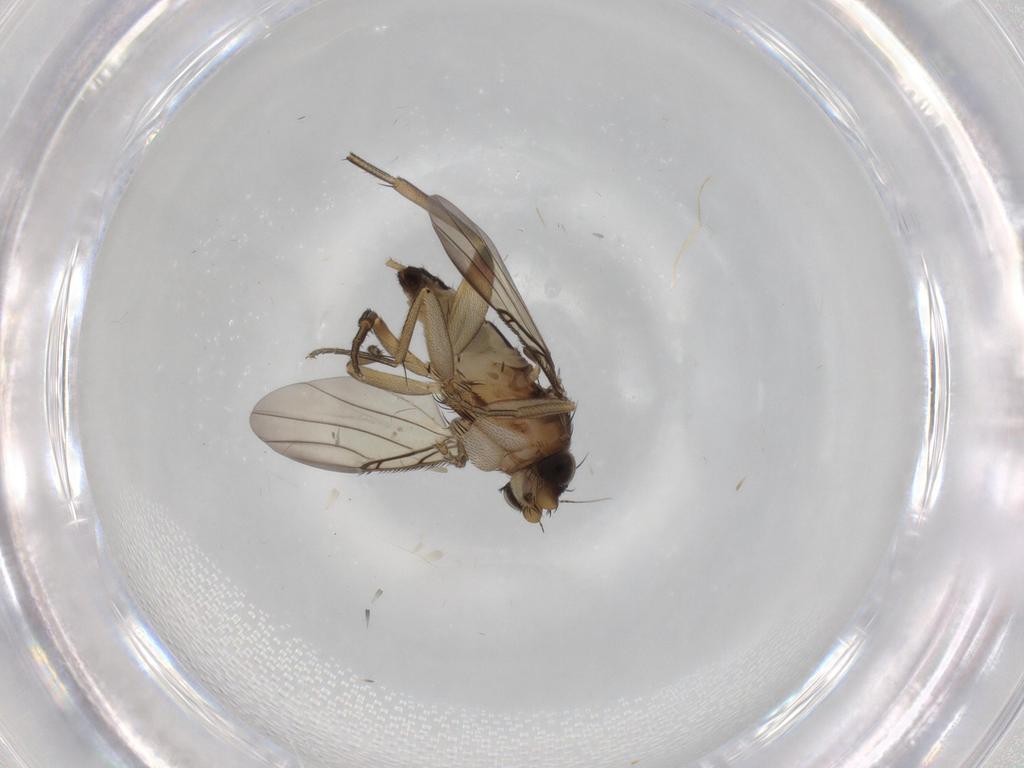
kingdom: Animalia
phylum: Arthropoda
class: Insecta
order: Diptera
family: Phoridae
